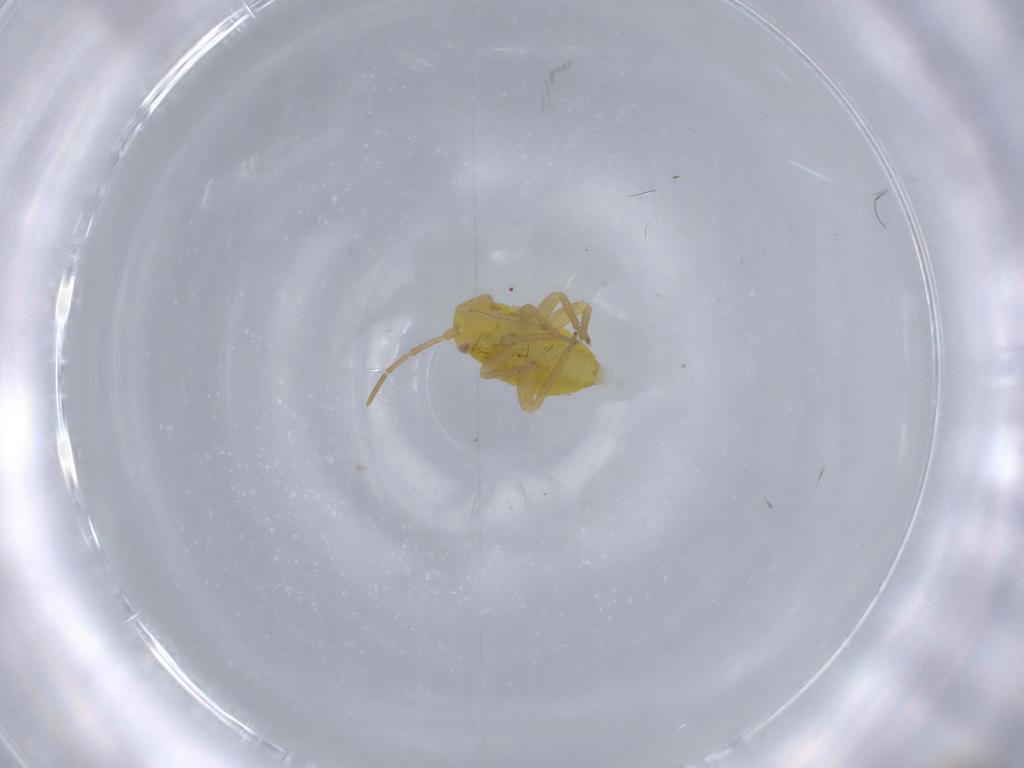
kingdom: Animalia
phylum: Arthropoda
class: Insecta
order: Hemiptera
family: Miridae
